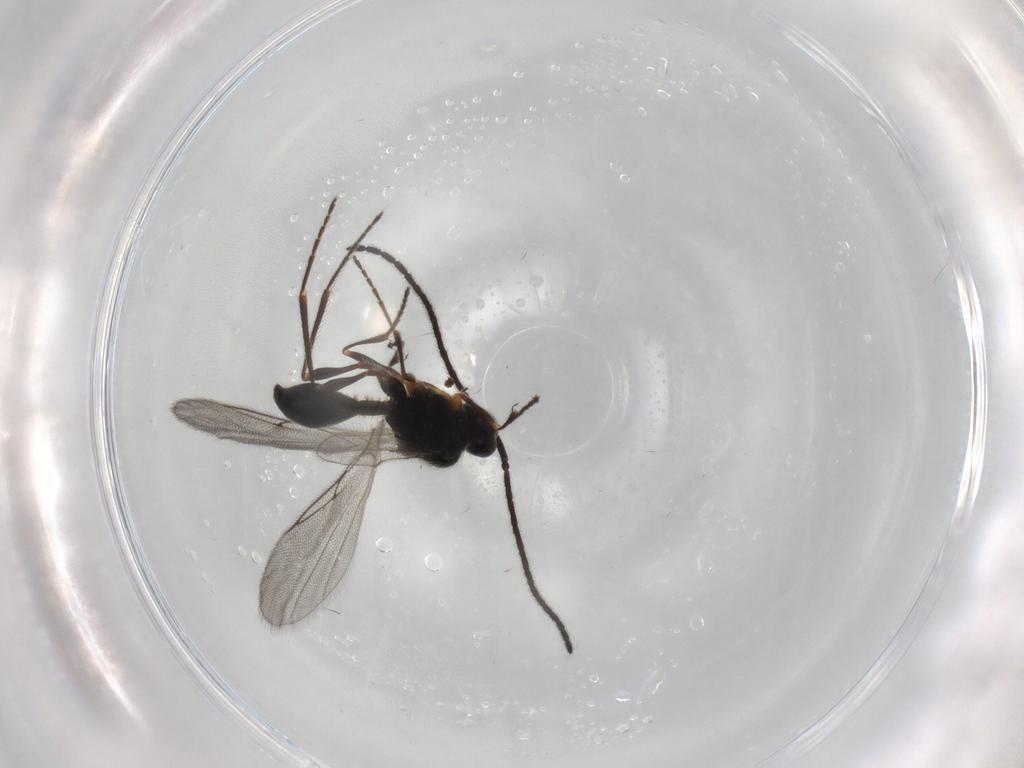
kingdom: Animalia
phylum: Arthropoda
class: Insecta
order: Hymenoptera
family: Diapriidae
